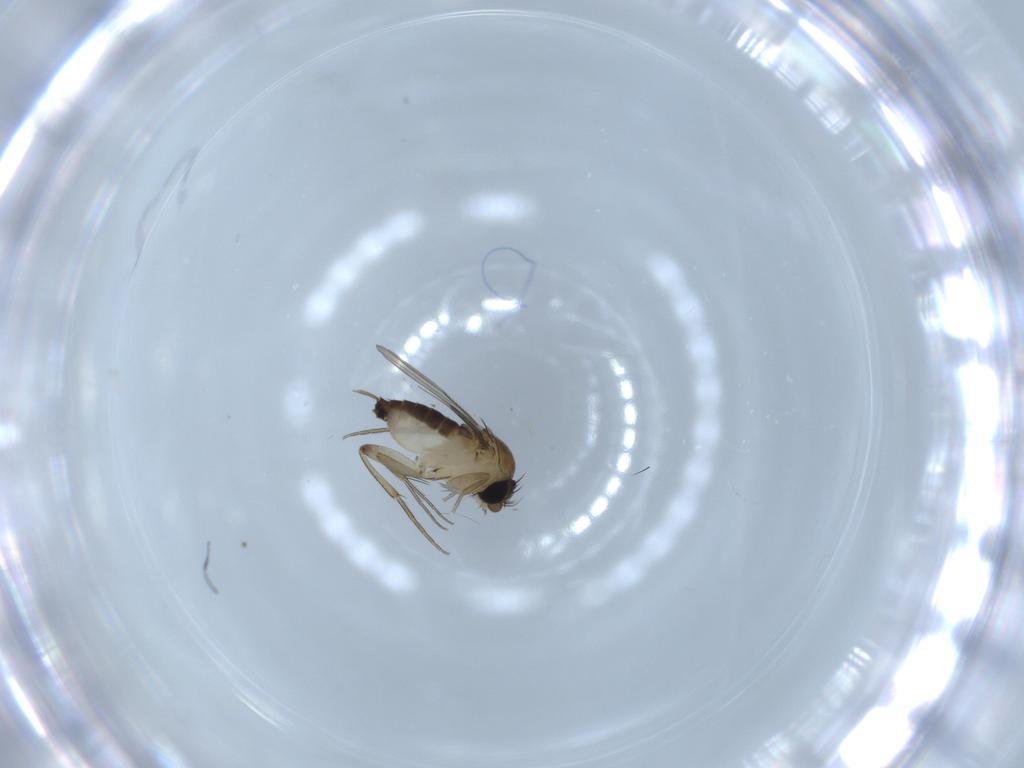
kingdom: Animalia
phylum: Arthropoda
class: Insecta
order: Diptera
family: Phoridae
